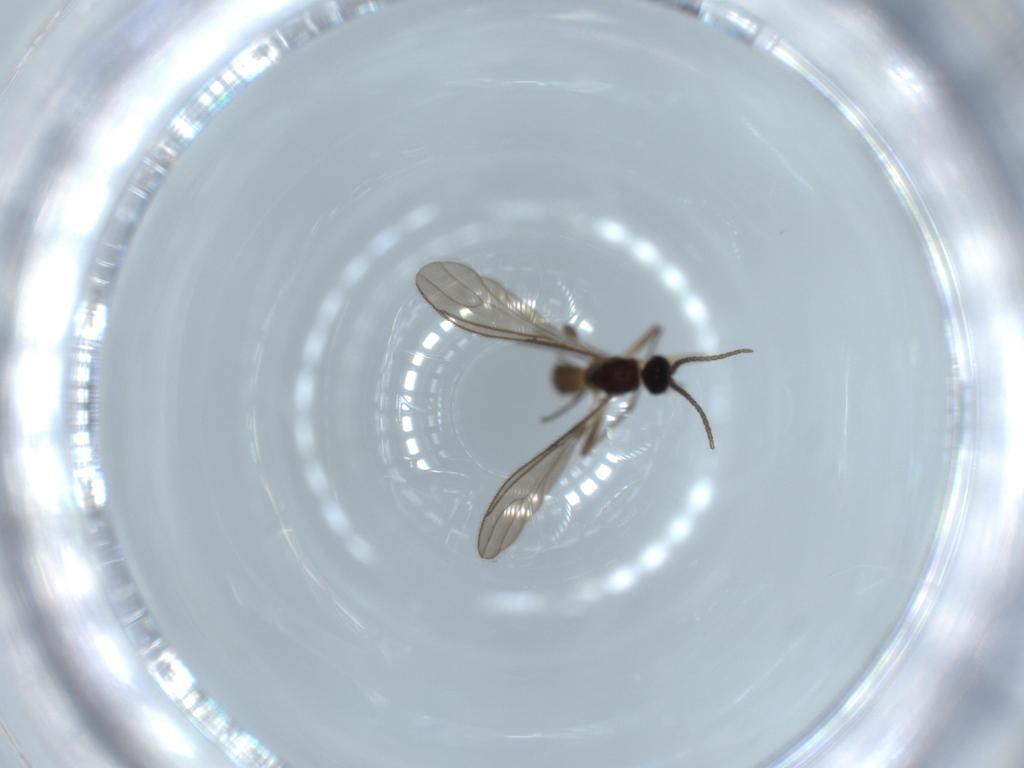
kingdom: Animalia
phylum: Arthropoda
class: Insecta
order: Diptera
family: Sciaridae
